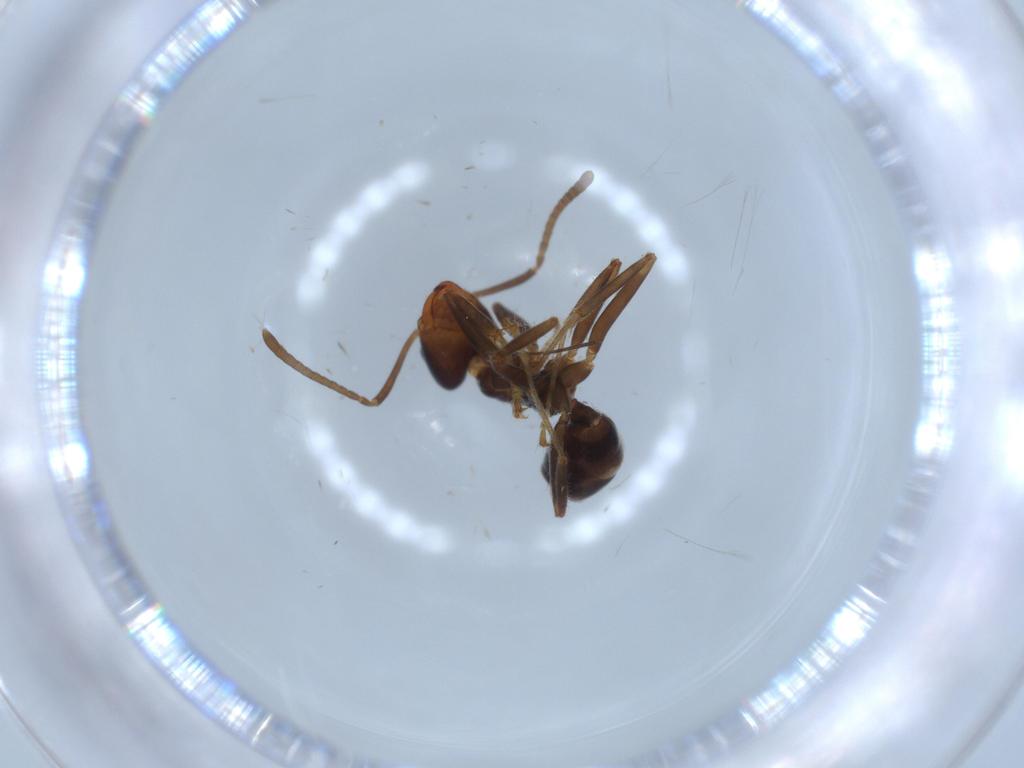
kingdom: Animalia
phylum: Arthropoda
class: Insecta
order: Hymenoptera
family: Formicidae
